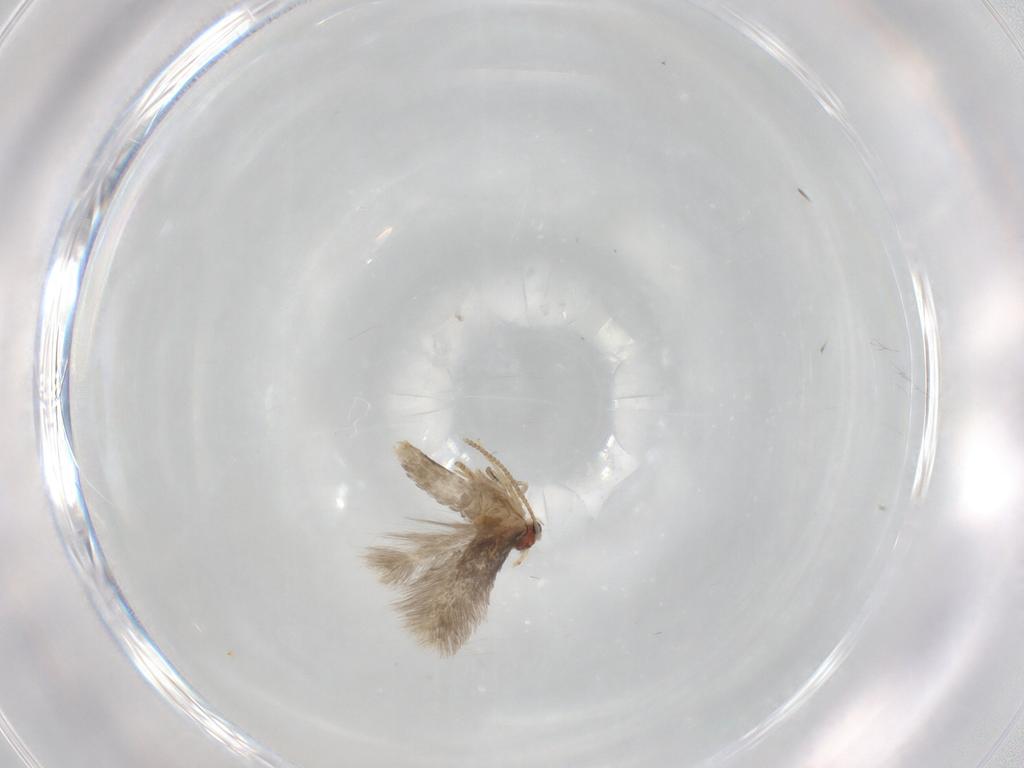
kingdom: Animalia
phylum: Arthropoda
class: Insecta
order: Lepidoptera
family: Nepticulidae
